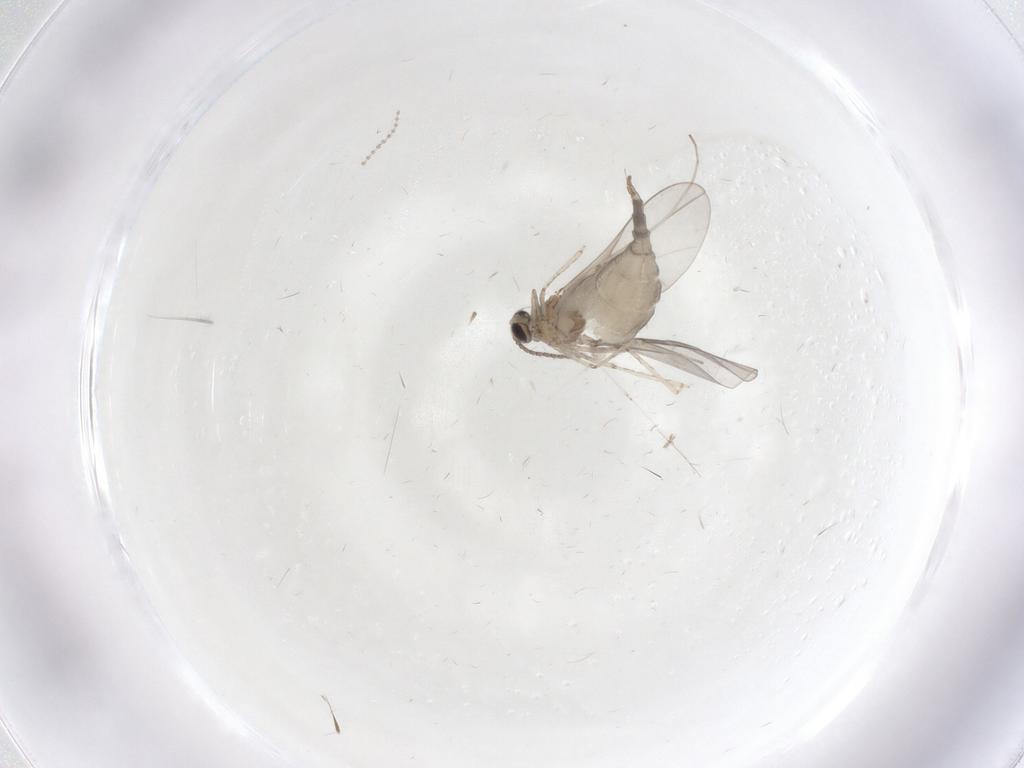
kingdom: Animalia
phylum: Arthropoda
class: Insecta
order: Diptera
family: Cecidomyiidae
